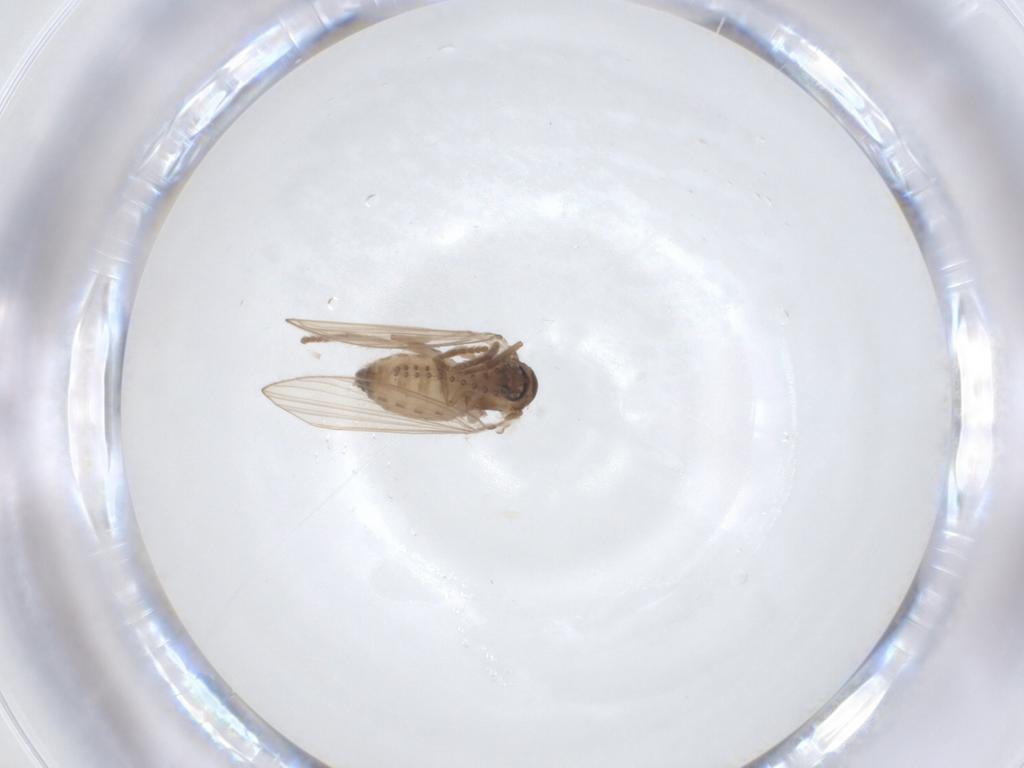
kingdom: Animalia
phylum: Arthropoda
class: Insecta
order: Diptera
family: Psychodidae
